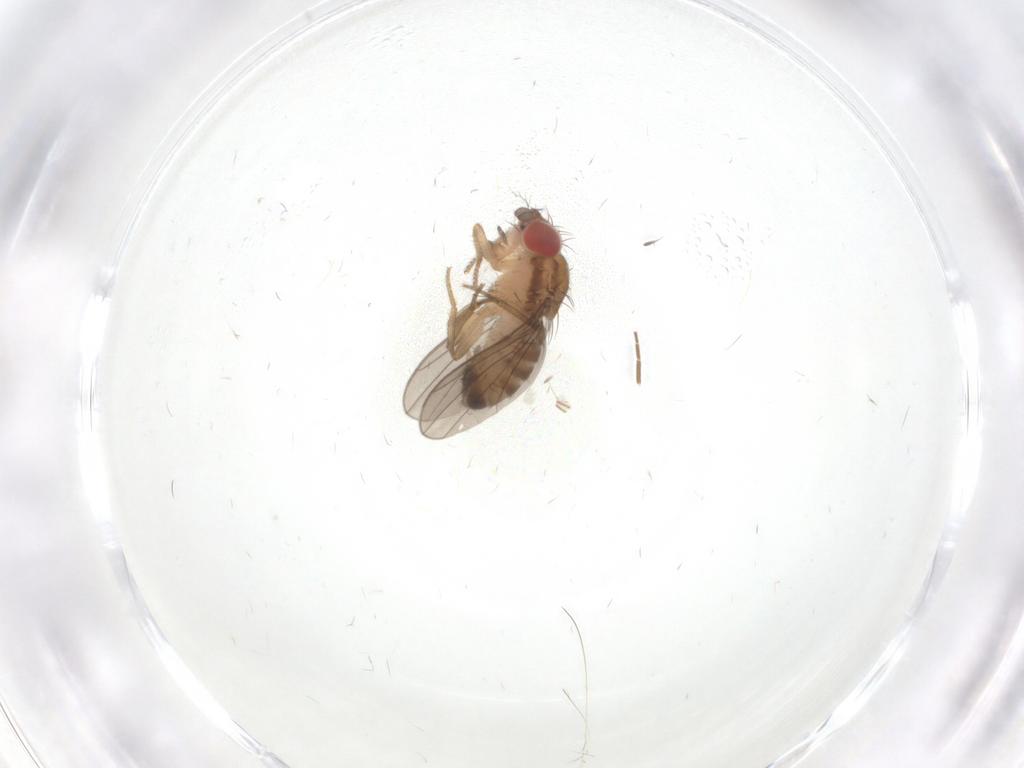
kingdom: Animalia
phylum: Arthropoda
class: Insecta
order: Diptera
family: Drosophilidae
